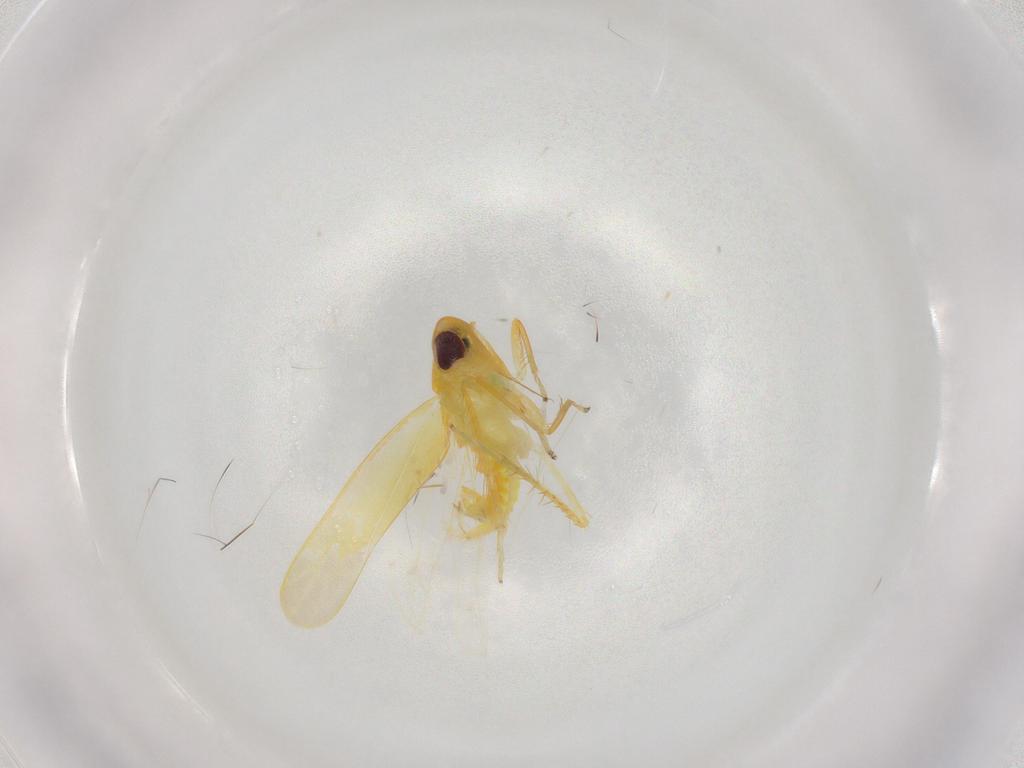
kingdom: Animalia
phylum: Arthropoda
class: Insecta
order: Hemiptera
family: Cicadellidae
